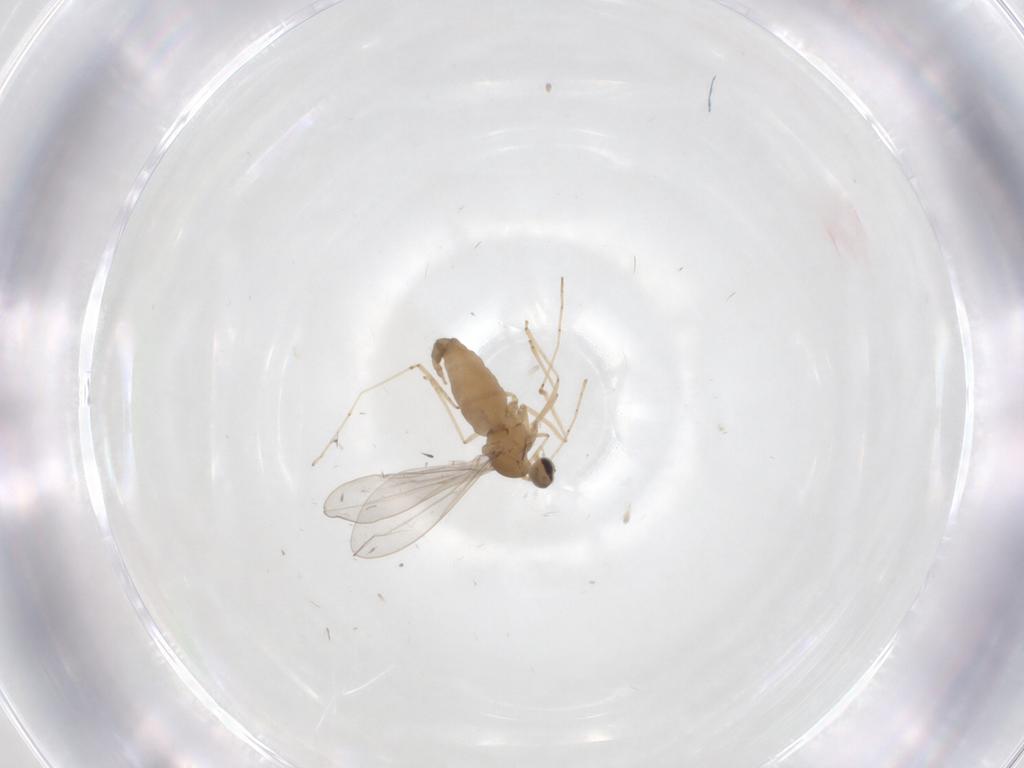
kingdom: Animalia
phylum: Arthropoda
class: Insecta
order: Diptera
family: Cecidomyiidae
